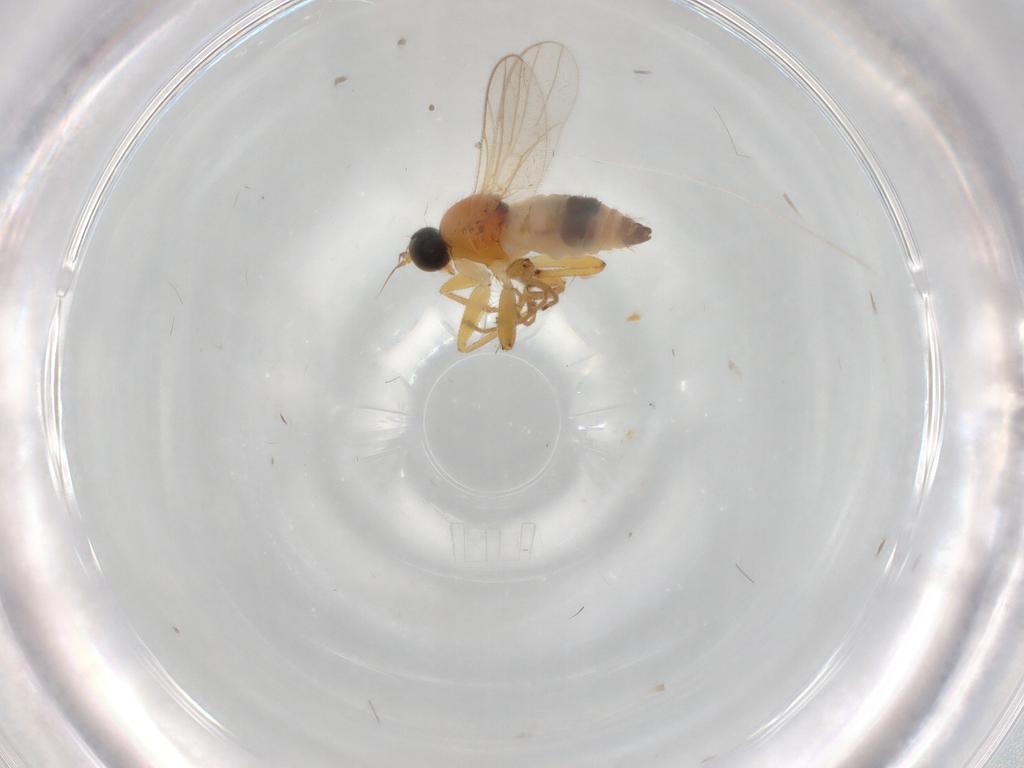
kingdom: Animalia
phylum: Arthropoda
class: Insecta
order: Diptera
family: Hybotidae
